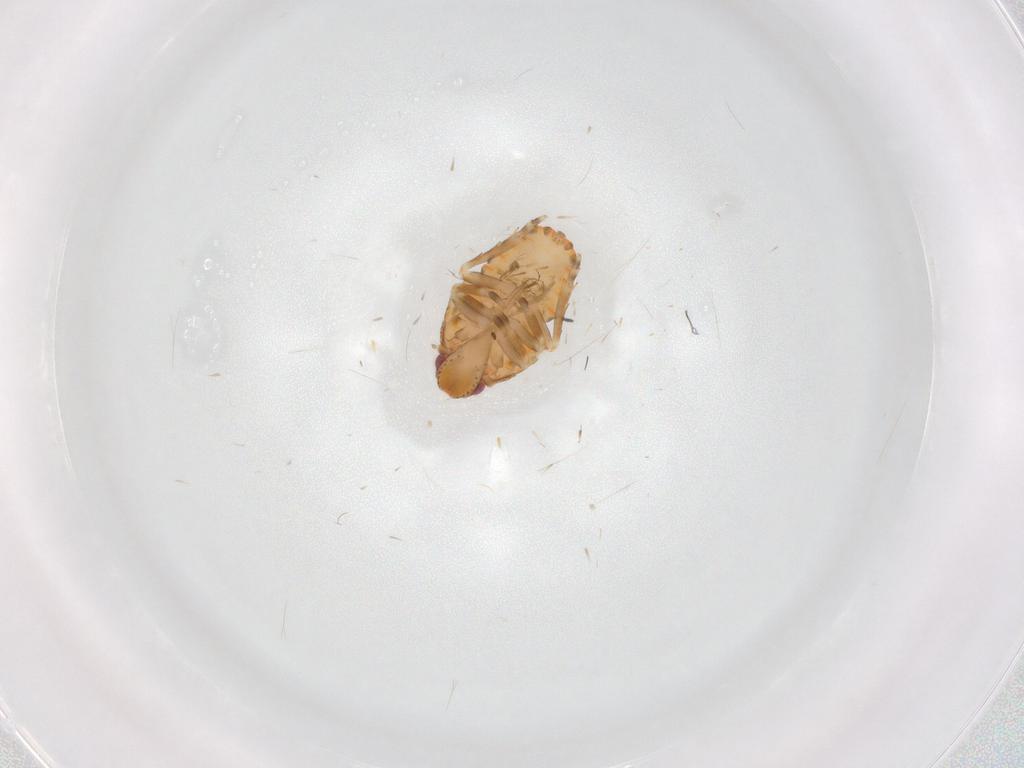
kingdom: Animalia
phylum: Arthropoda
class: Insecta
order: Hemiptera
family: Flatidae
